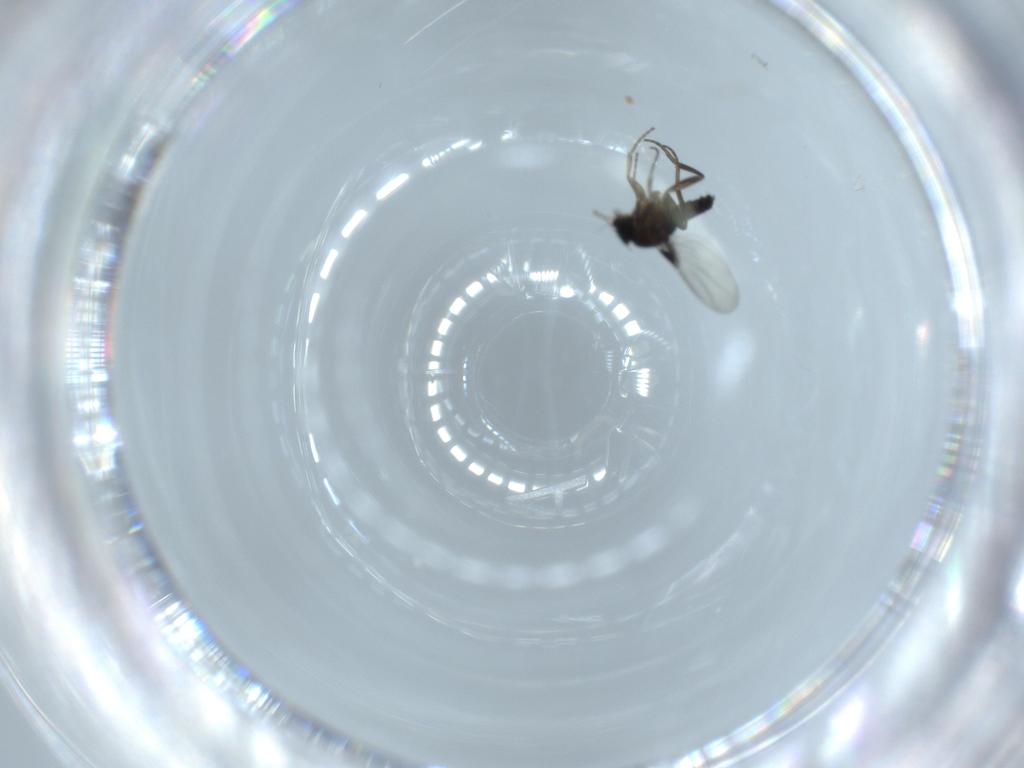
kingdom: Animalia
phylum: Arthropoda
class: Insecta
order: Diptera
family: Phoridae
